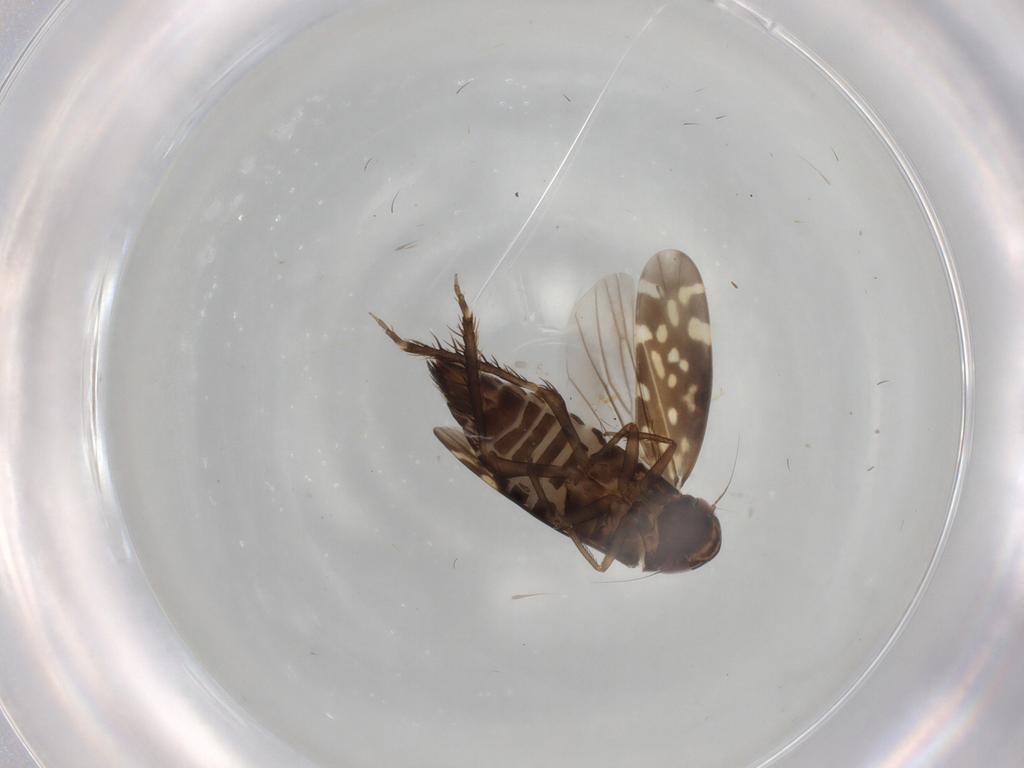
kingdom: Animalia
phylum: Arthropoda
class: Insecta
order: Hemiptera
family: Cicadellidae
